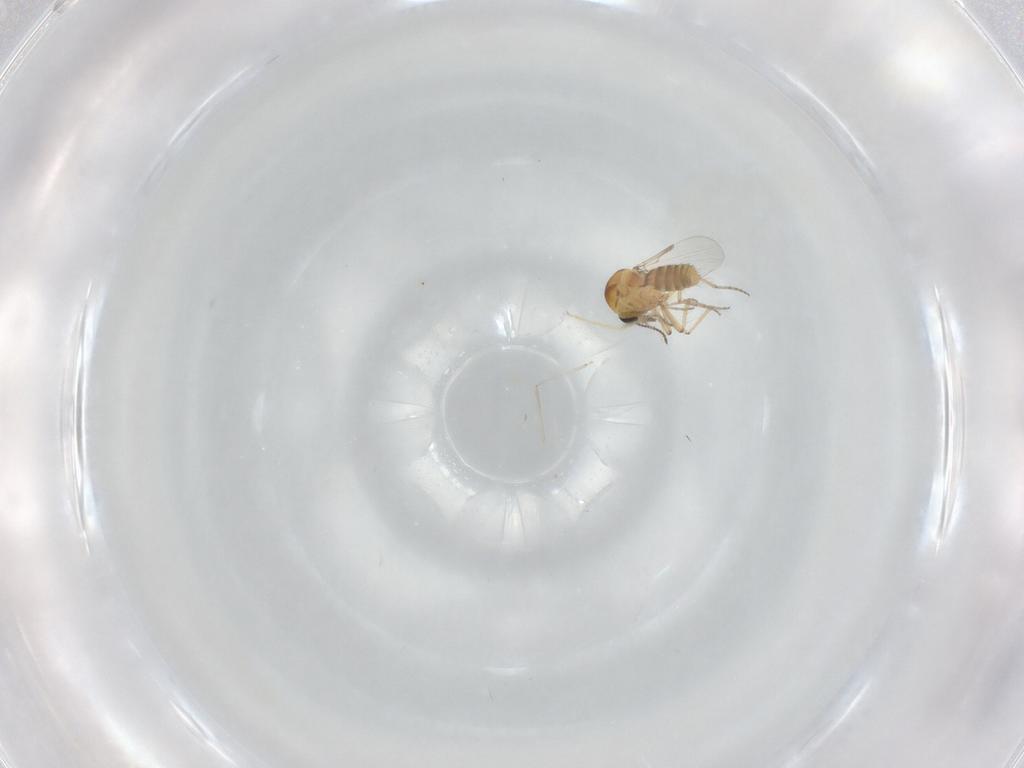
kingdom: Animalia
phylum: Arthropoda
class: Insecta
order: Diptera
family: Ceratopogonidae
